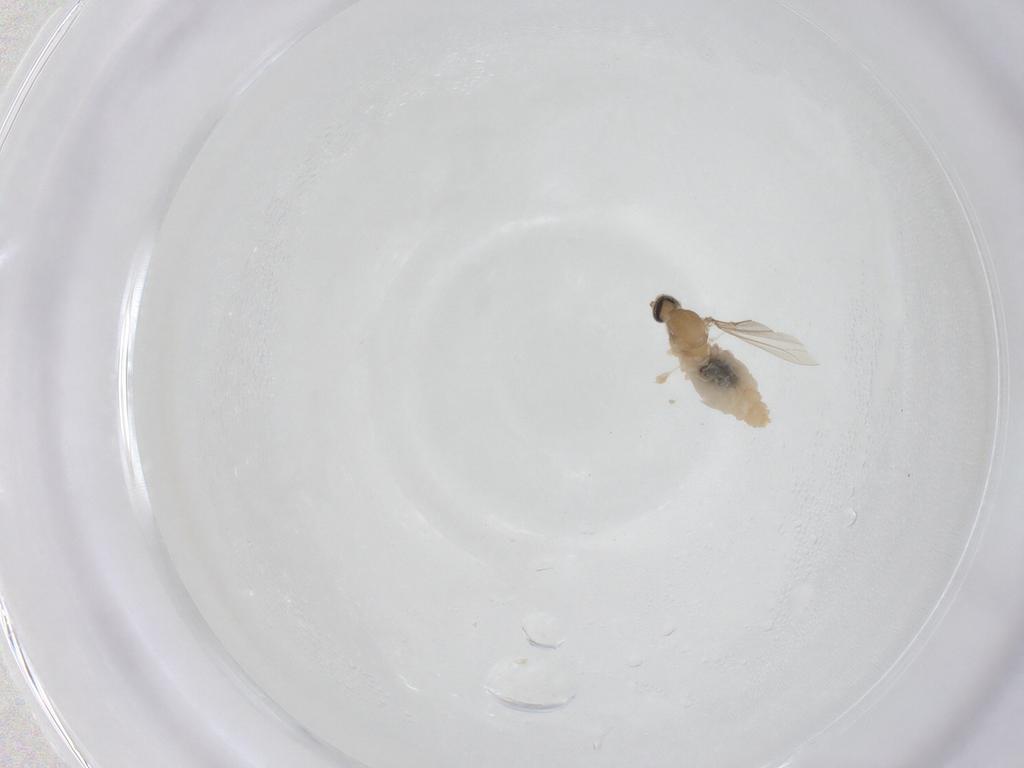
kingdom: Animalia
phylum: Arthropoda
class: Insecta
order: Diptera
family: Cecidomyiidae
